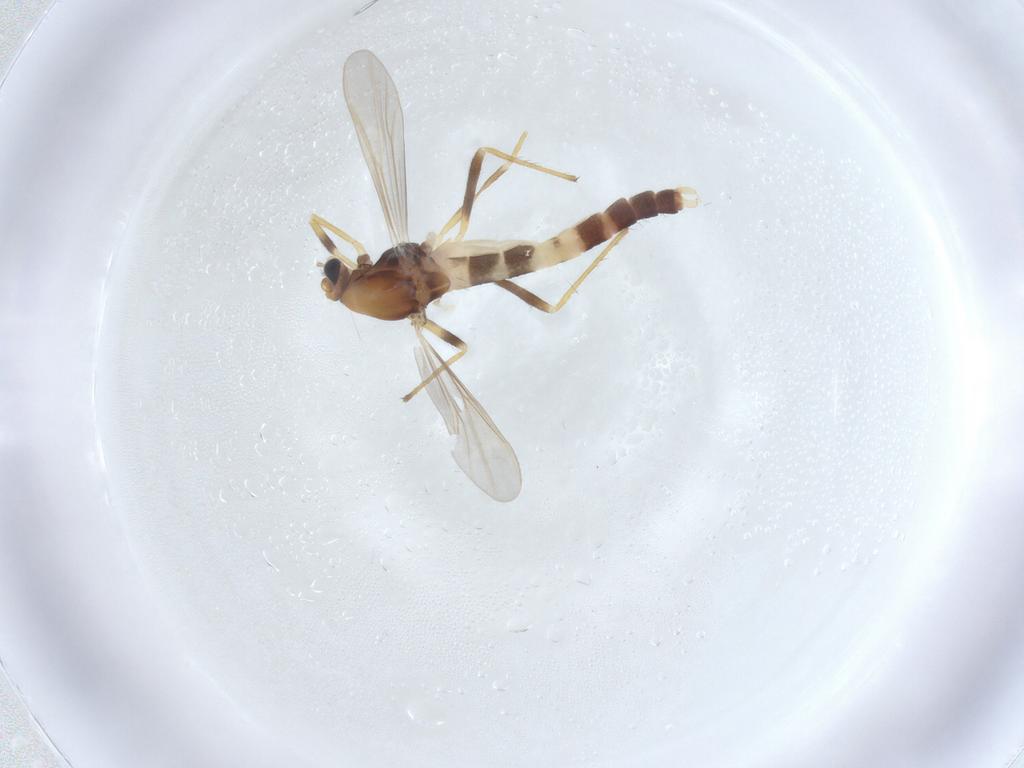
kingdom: Animalia
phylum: Arthropoda
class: Insecta
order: Diptera
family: Chironomidae
